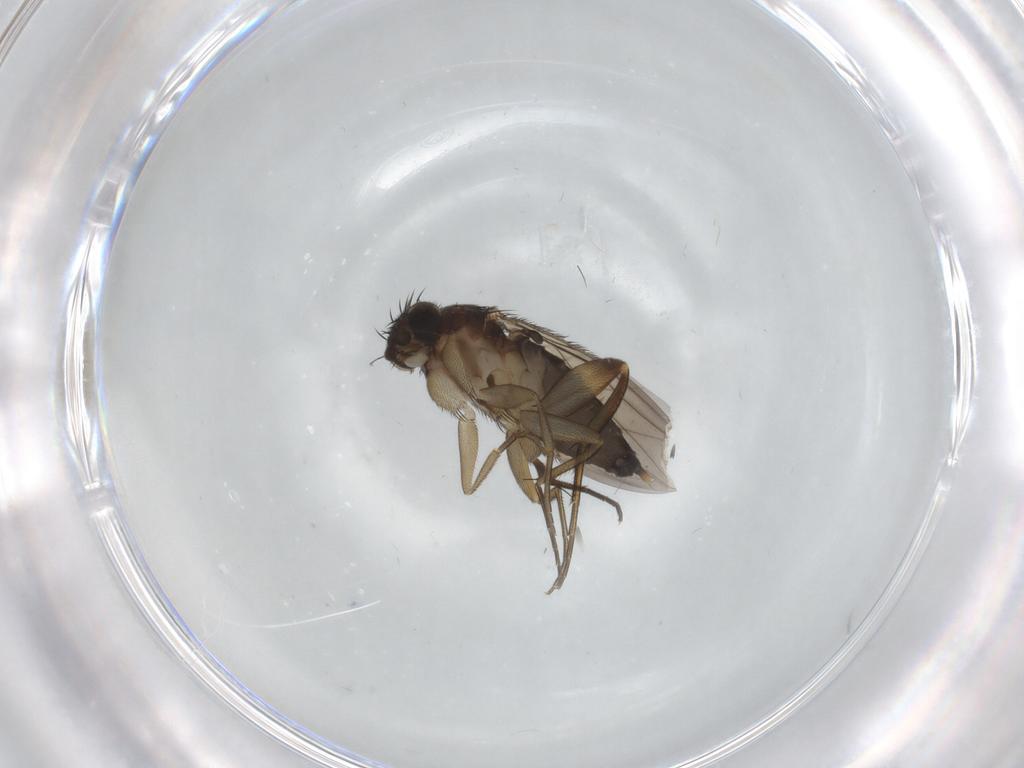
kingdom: Animalia
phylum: Arthropoda
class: Insecta
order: Diptera
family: Phoridae
